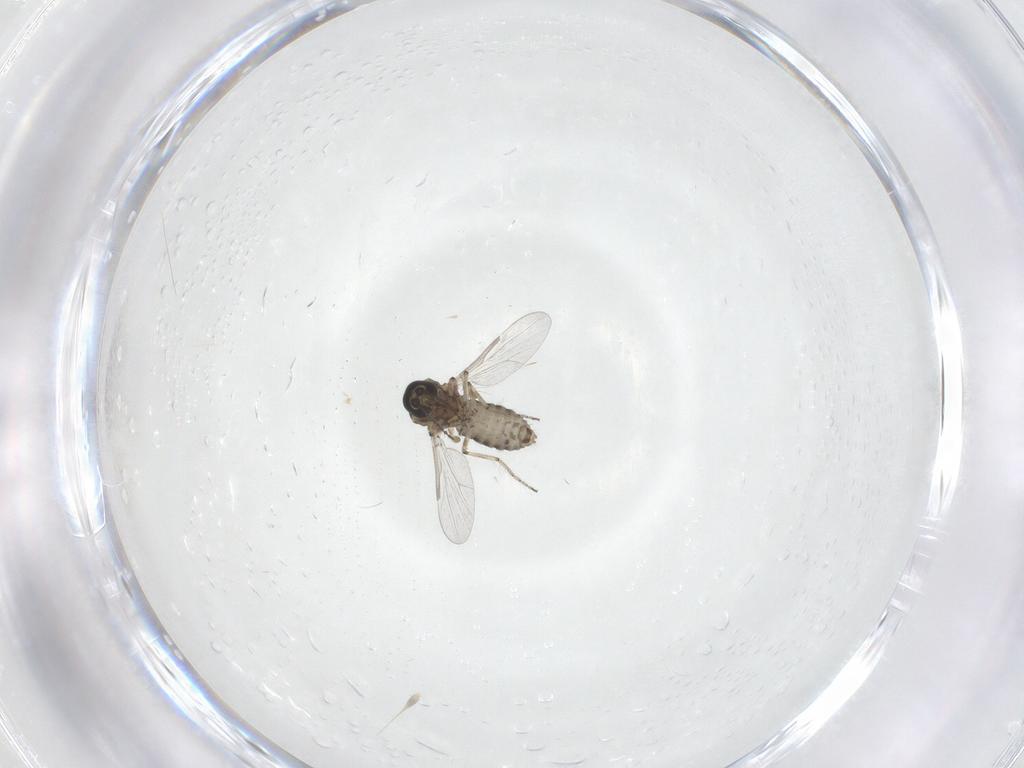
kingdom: Animalia
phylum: Arthropoda
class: Insecta
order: Diptera
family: Ceratopogonidae
